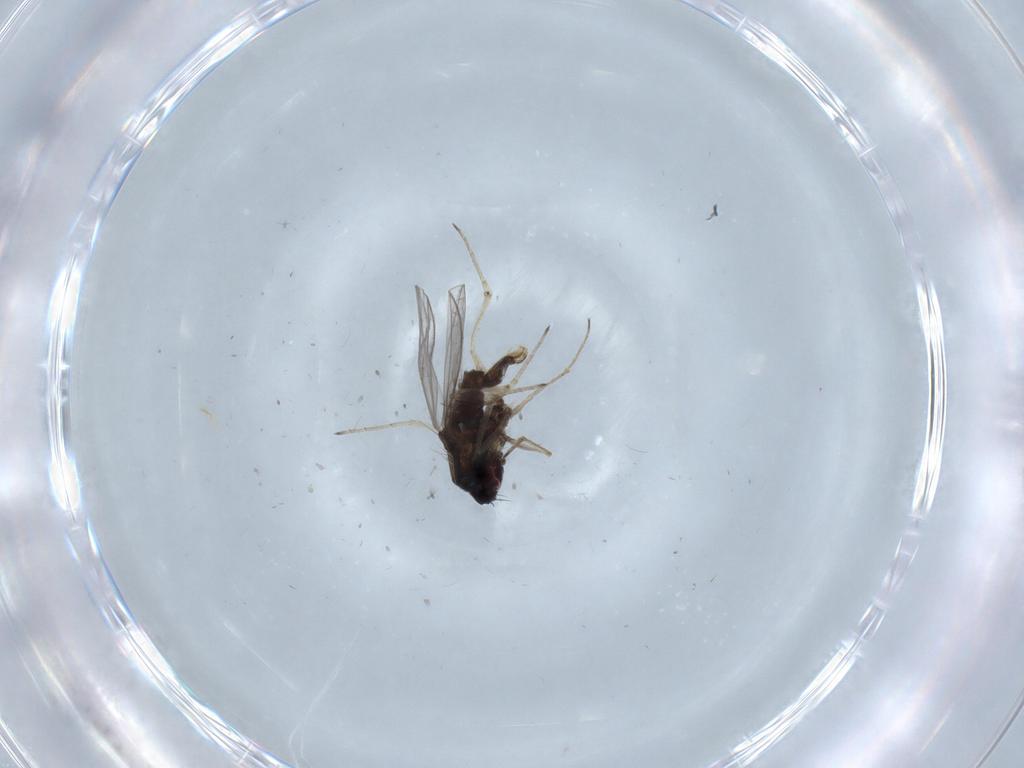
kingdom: Animalia
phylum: Arthropoda
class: Insecta
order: Diptera
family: Dolichopodidae
